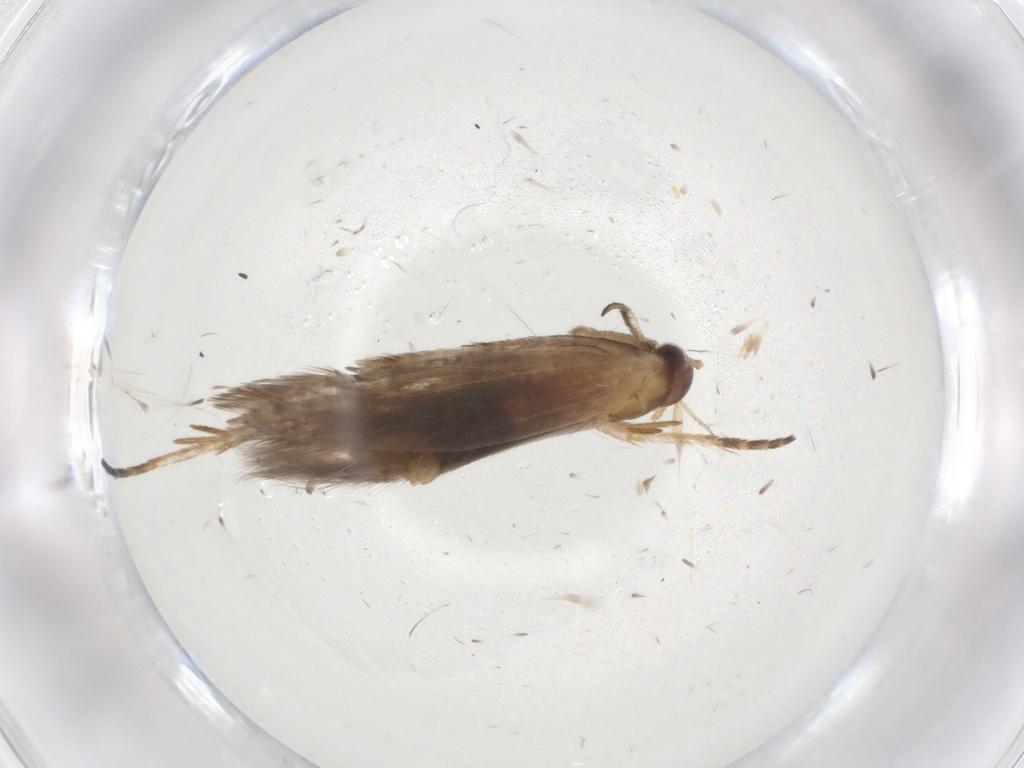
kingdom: Animalia
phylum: Arthropoda
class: Insecta
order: Lepidoptera
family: Gelechiidae
